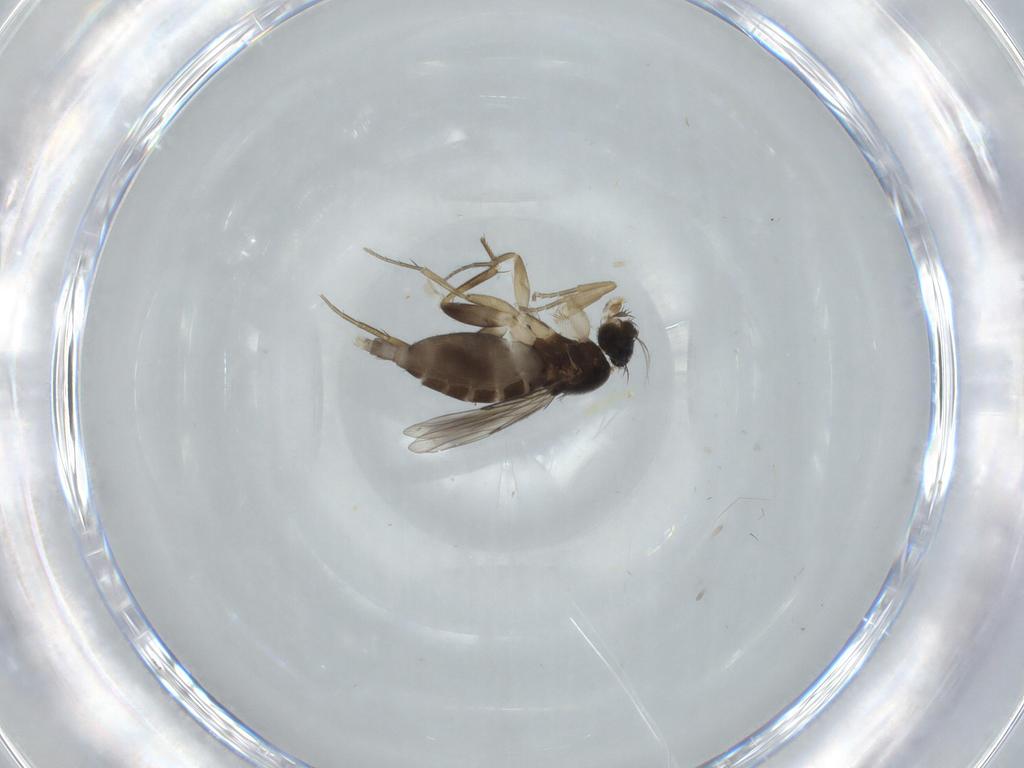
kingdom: Animalia
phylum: Arthropoda
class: Insecta
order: Diptera
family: Phoridae
